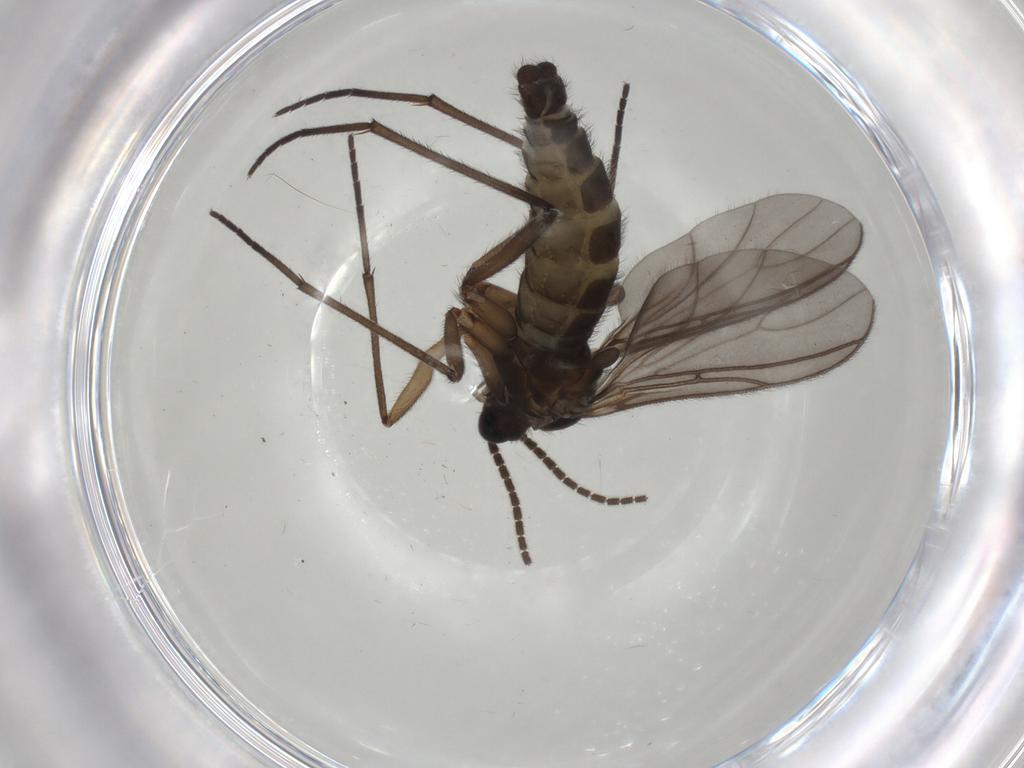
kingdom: Animalia
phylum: Arthropoda
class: Insecta
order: Diptera
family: Sciaridae
